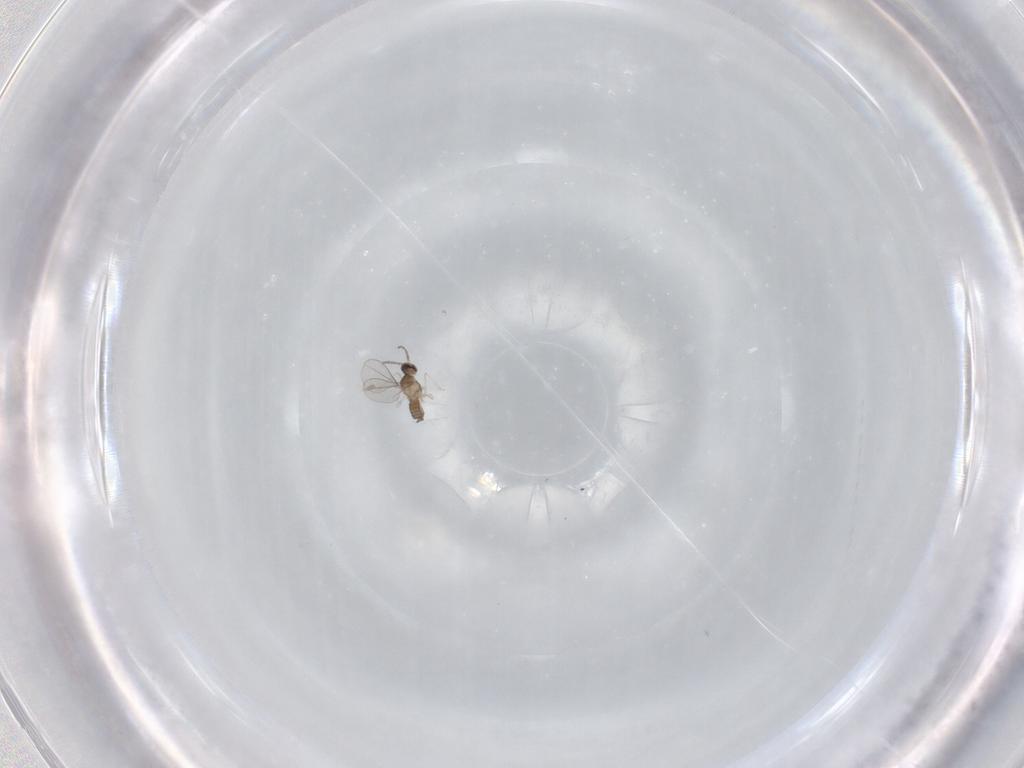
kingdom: Animalia
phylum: Arthropoda
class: Insecta
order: Diptera
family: Cecidomyiidae
